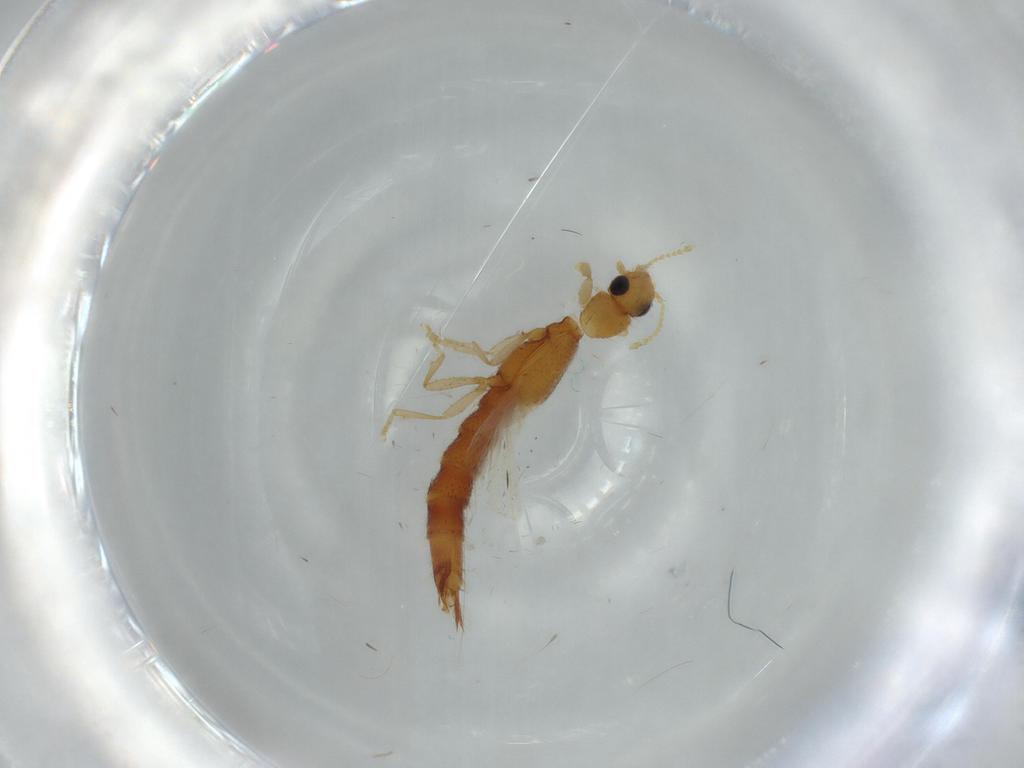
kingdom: Animalia
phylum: Arthropoda
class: Insecta
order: Coleoptera
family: Staphylinidae
